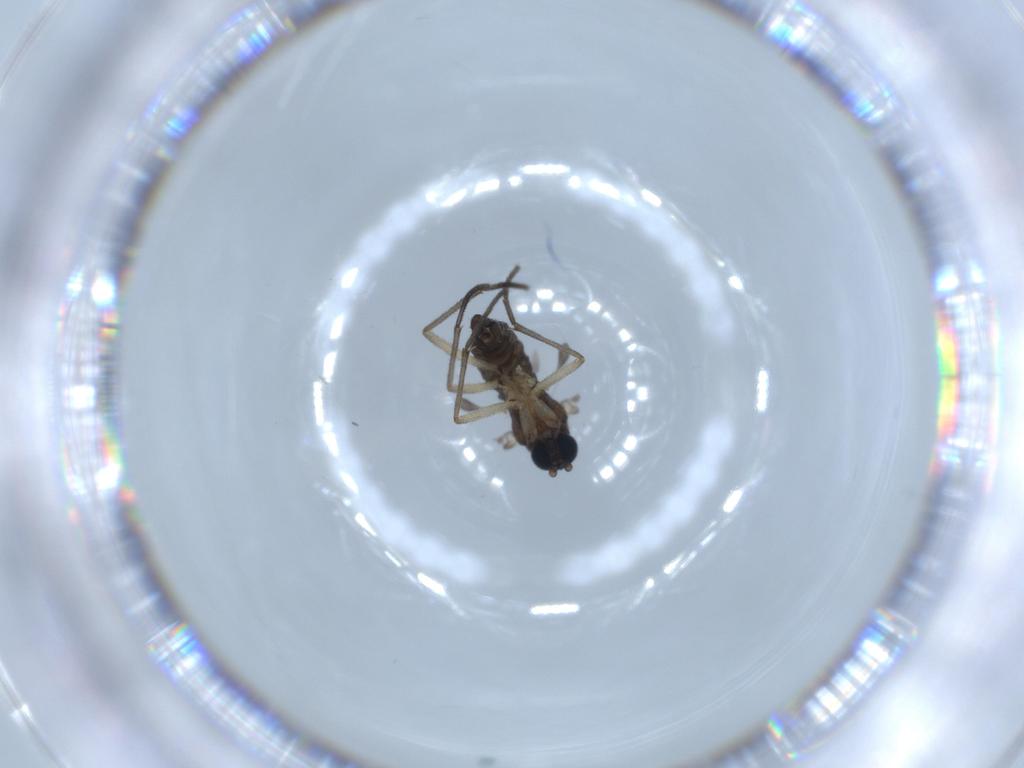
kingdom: Animalia
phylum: Arthropoda
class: Insecta
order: Diptera
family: Sciaridae
